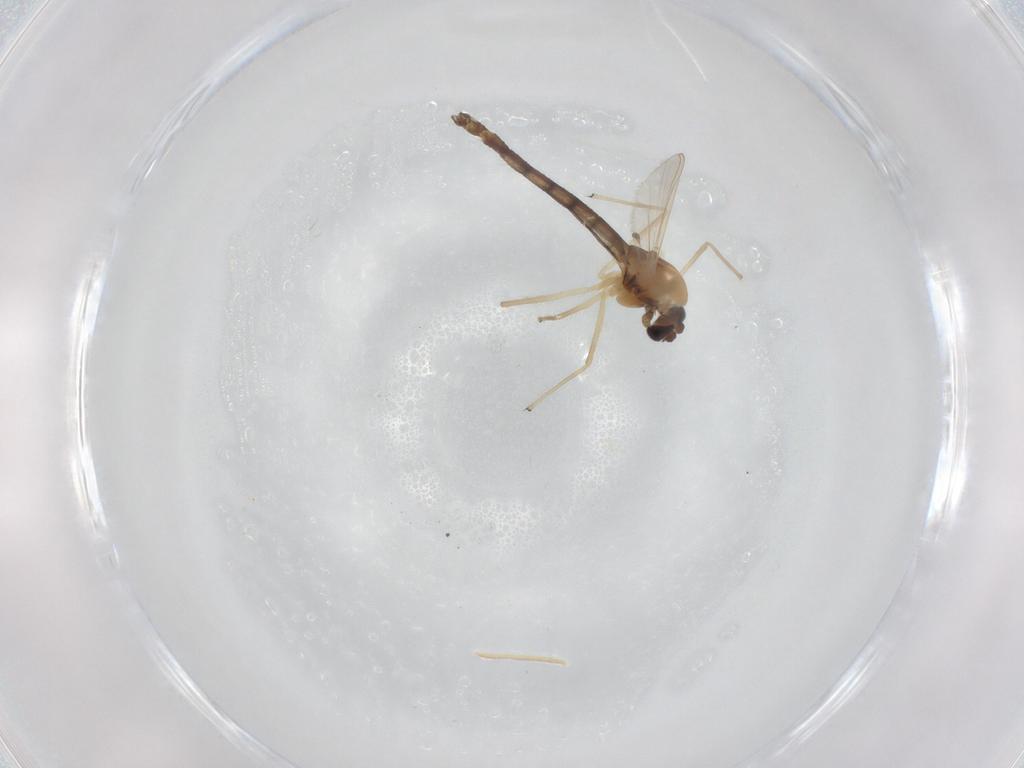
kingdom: Animalia
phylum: Arthropoda
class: Insecta
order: Diptera
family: Chironomidae
